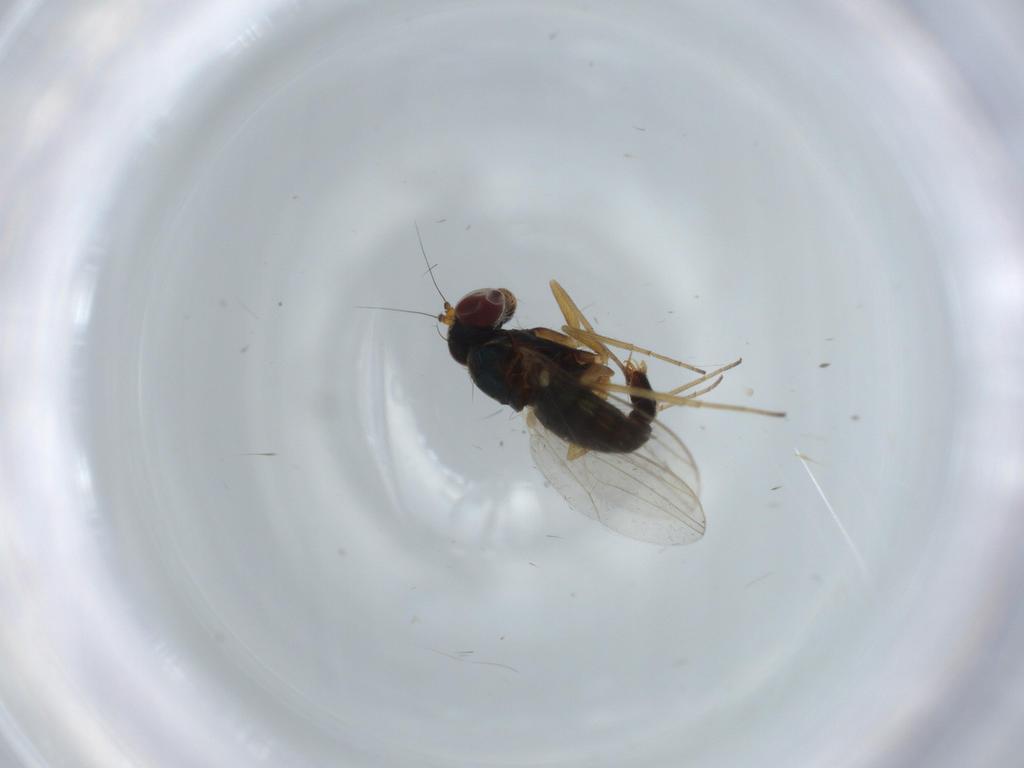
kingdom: Animalia
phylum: Arthropoda
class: Insecta
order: Diptera
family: Dolichopodidae
